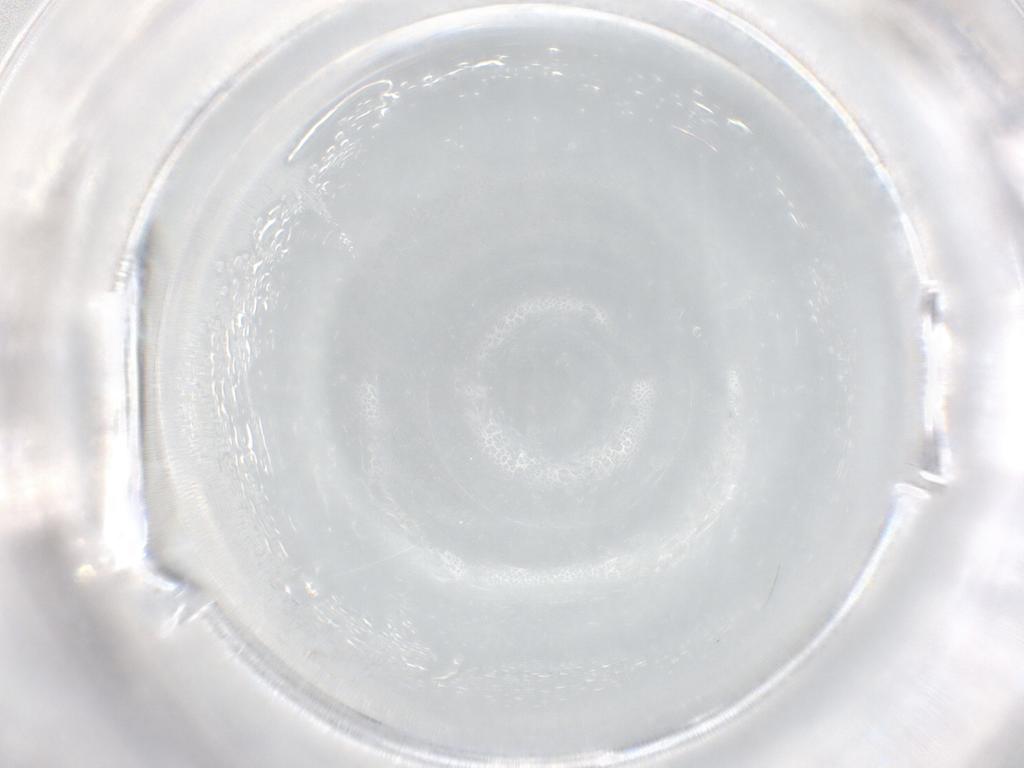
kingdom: Animalia
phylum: Arthropoda
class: Arachnida
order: Trombidiformes
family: Anystidae
